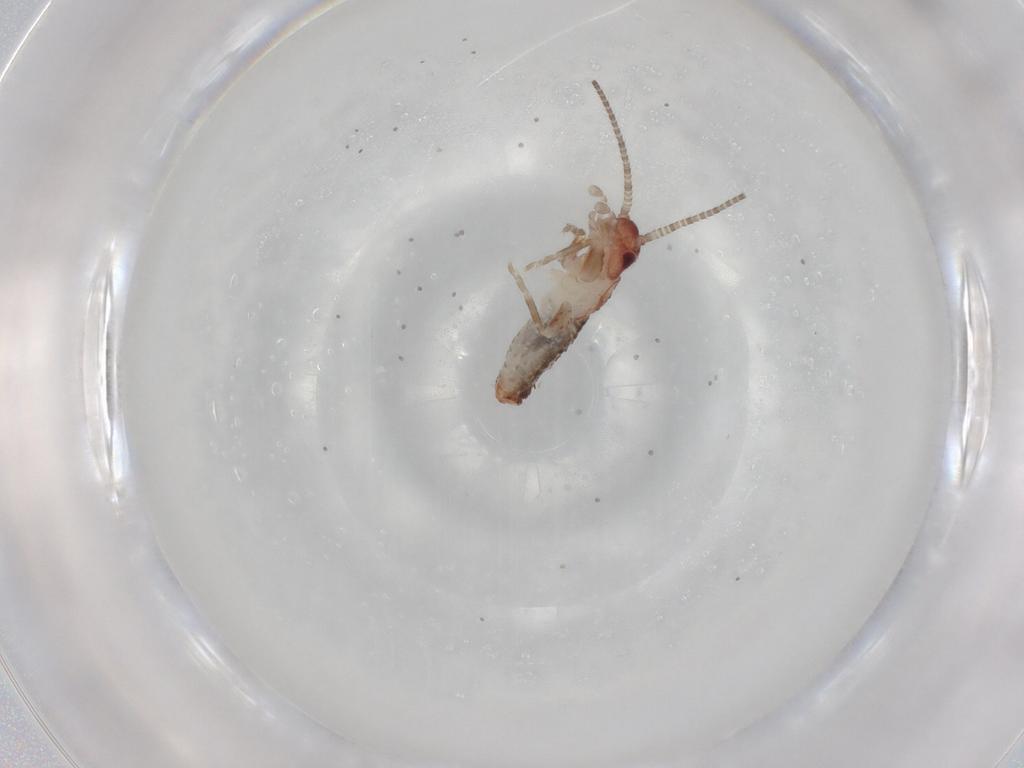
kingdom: Animalia
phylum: Arthropoda
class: Insecta
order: Orthoptera
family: Mogoplistidae
